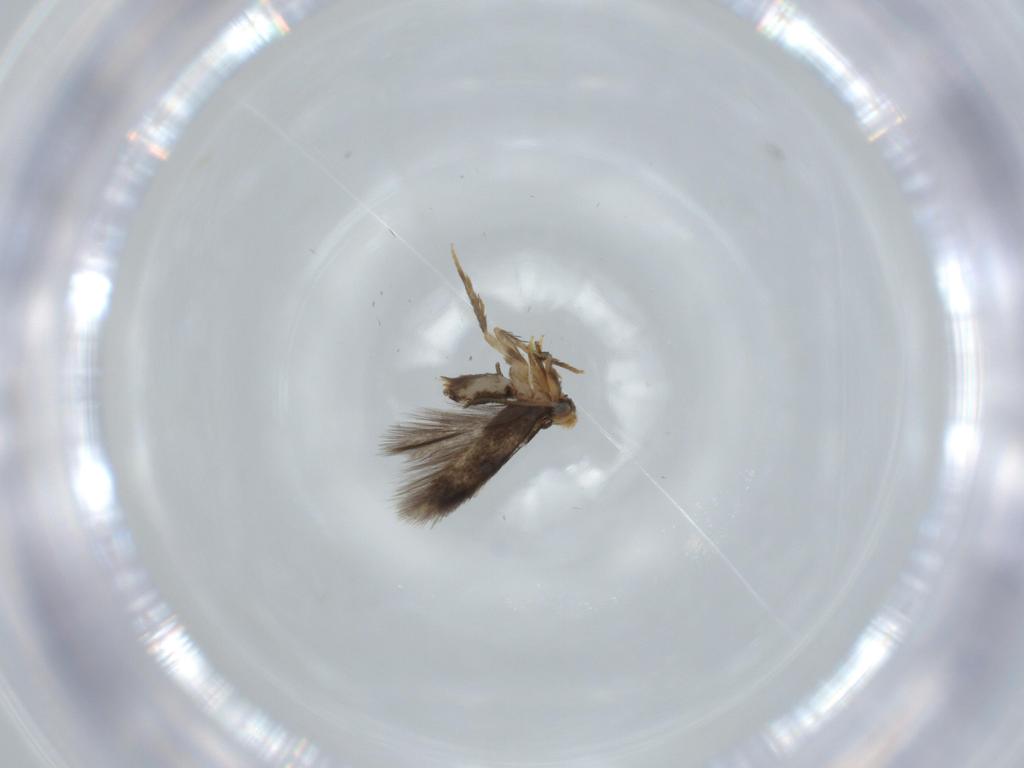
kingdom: Animalia
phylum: Arthropoda
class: Insecta
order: Lepidoptera
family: Nepticulidae
